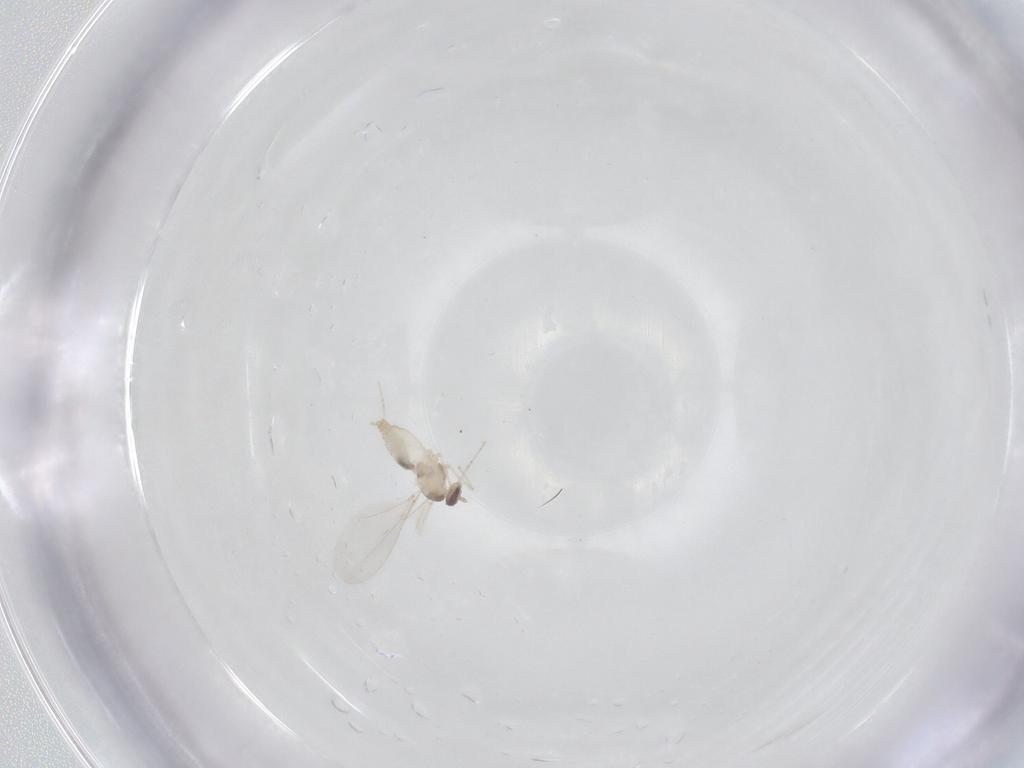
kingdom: Animalia
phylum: Arthropoda
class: Insecta
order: Diptera
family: Cecidomyiidae
